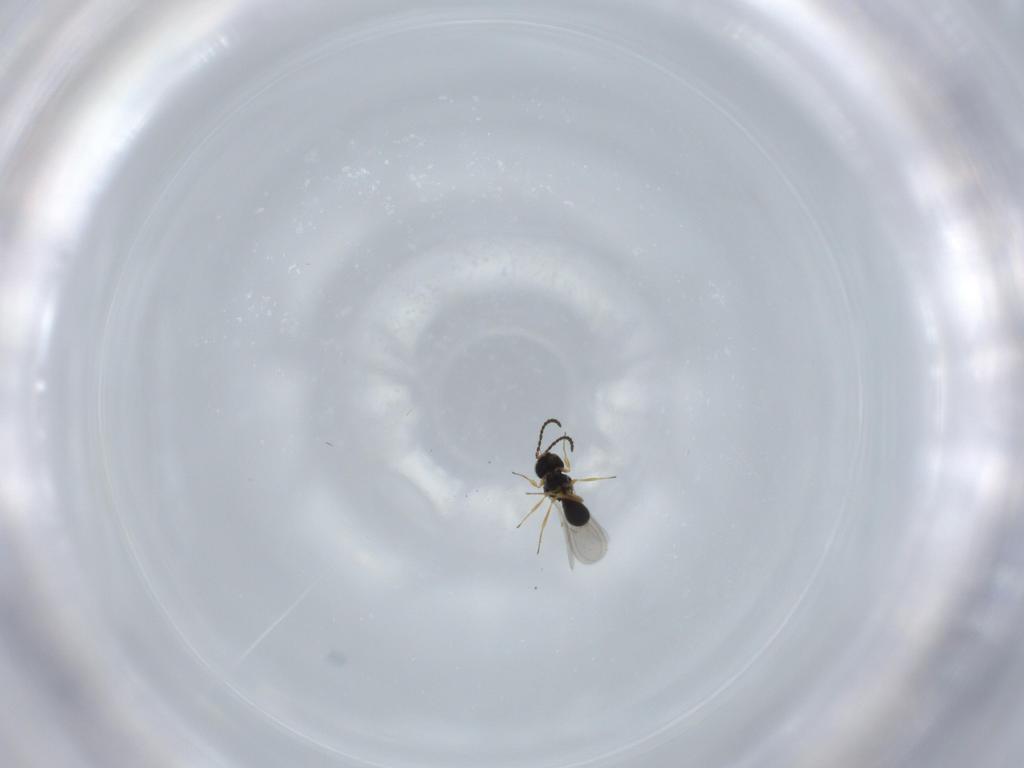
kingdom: Animalia
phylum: Arthropoda
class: Insecta
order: Hymenoptera
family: Scelionidae
